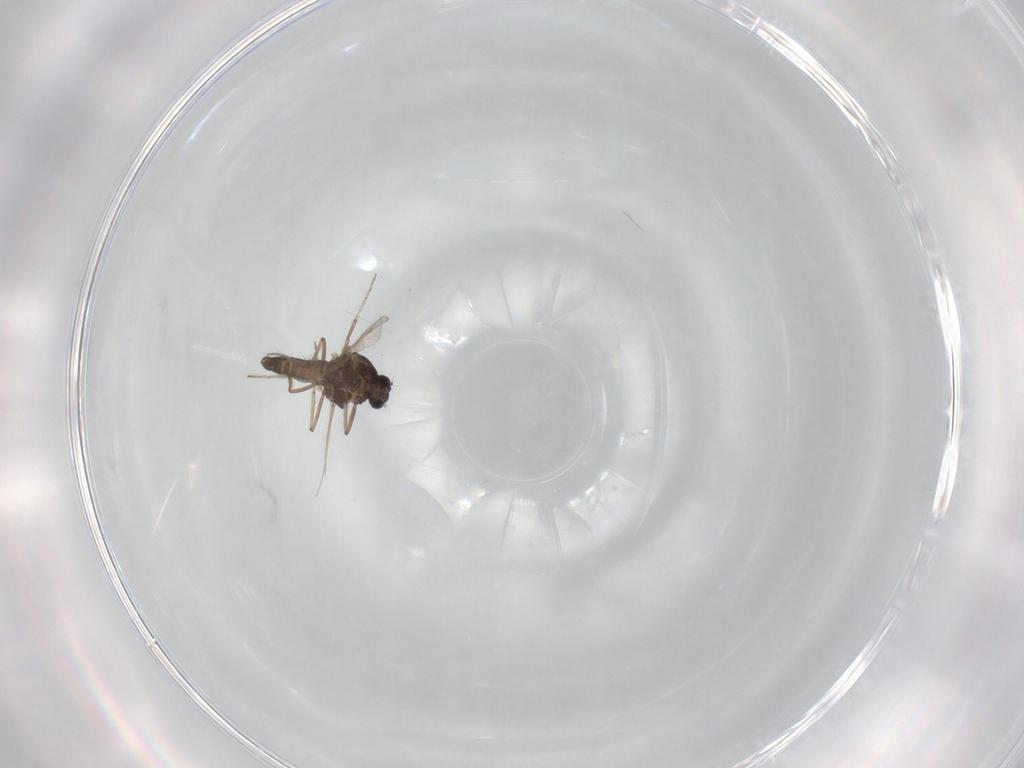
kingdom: Animalia
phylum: Arthropoda
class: Insecta
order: Diptera
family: Ceratopogonidae
